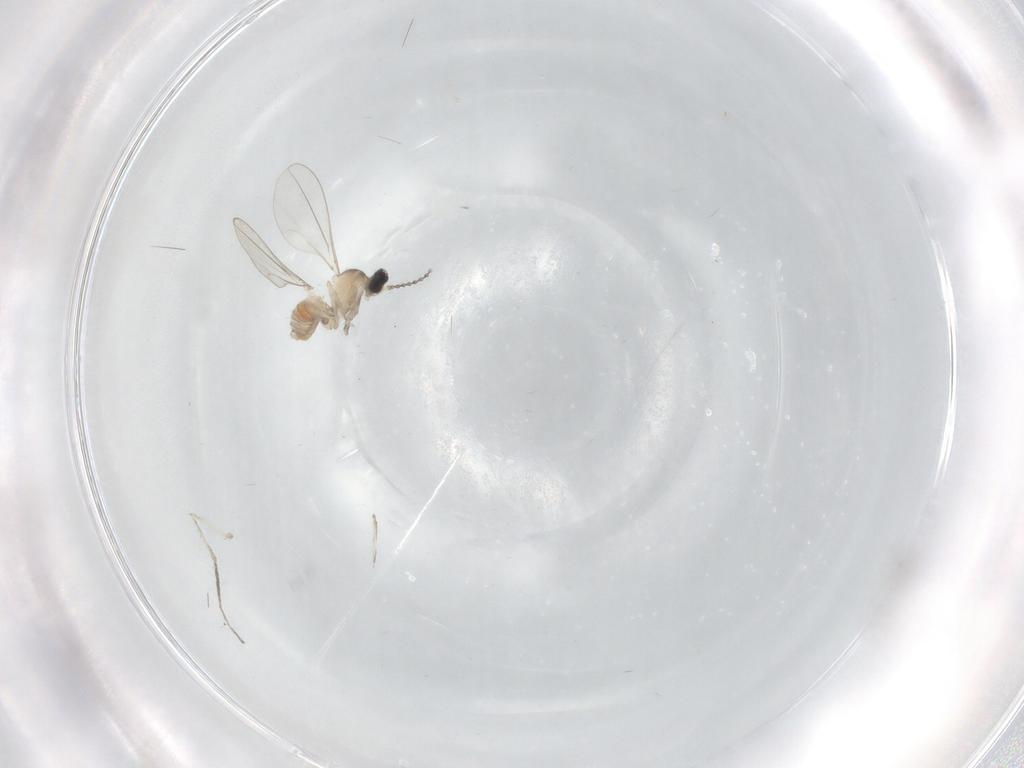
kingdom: Animalia
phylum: Arthropoda
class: Insecta
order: Diptera
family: Cecidomyiidae
